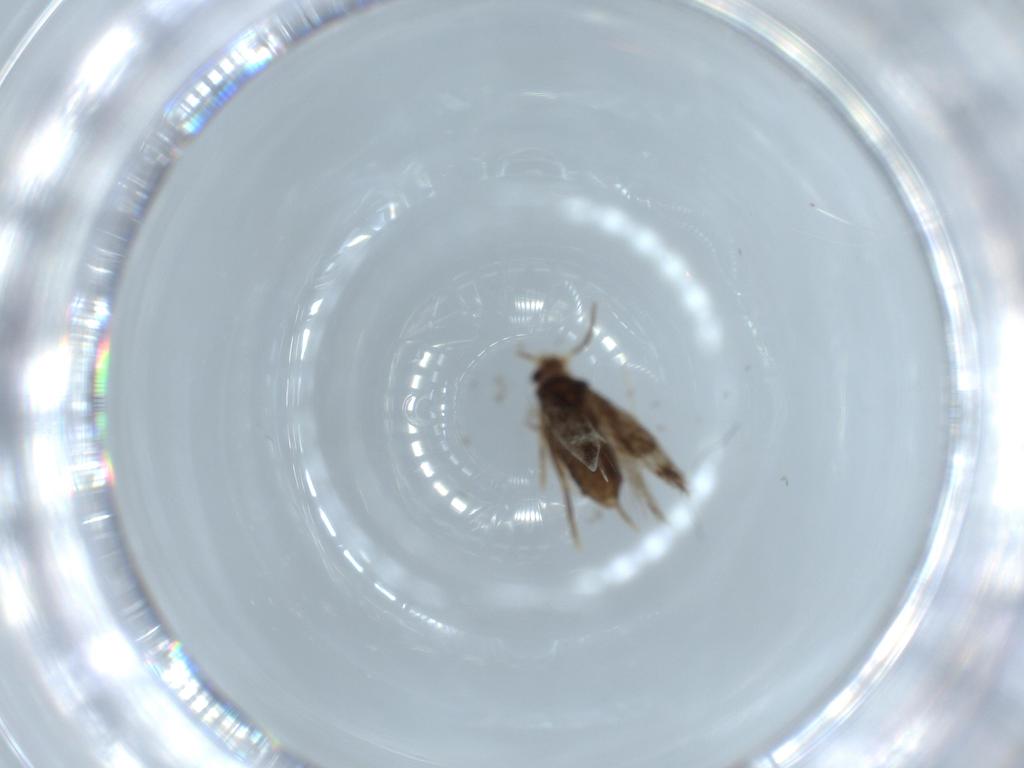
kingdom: Animalia
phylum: Arthropoda
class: Insecta
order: Lepidoptera
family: Nepticulidae
